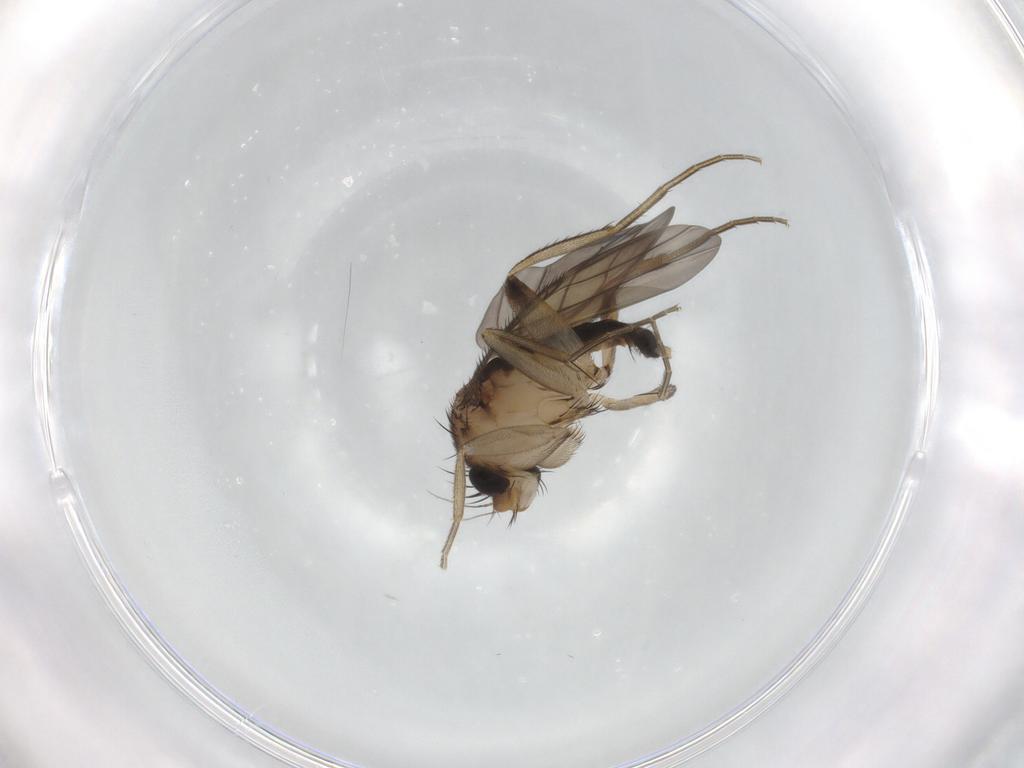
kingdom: Animalia
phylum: Arthropoda
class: Insecta
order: Diptera
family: Phoridae
